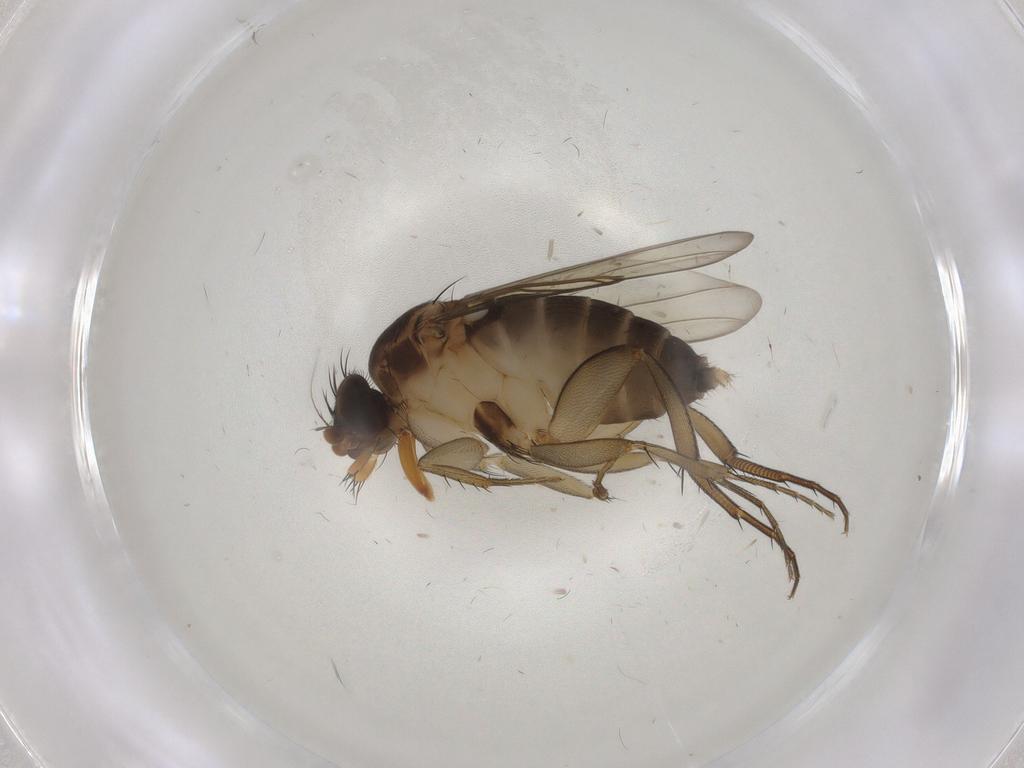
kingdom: Animalia
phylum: Arthropoda
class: Insecta
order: Diptera
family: Phoridae
